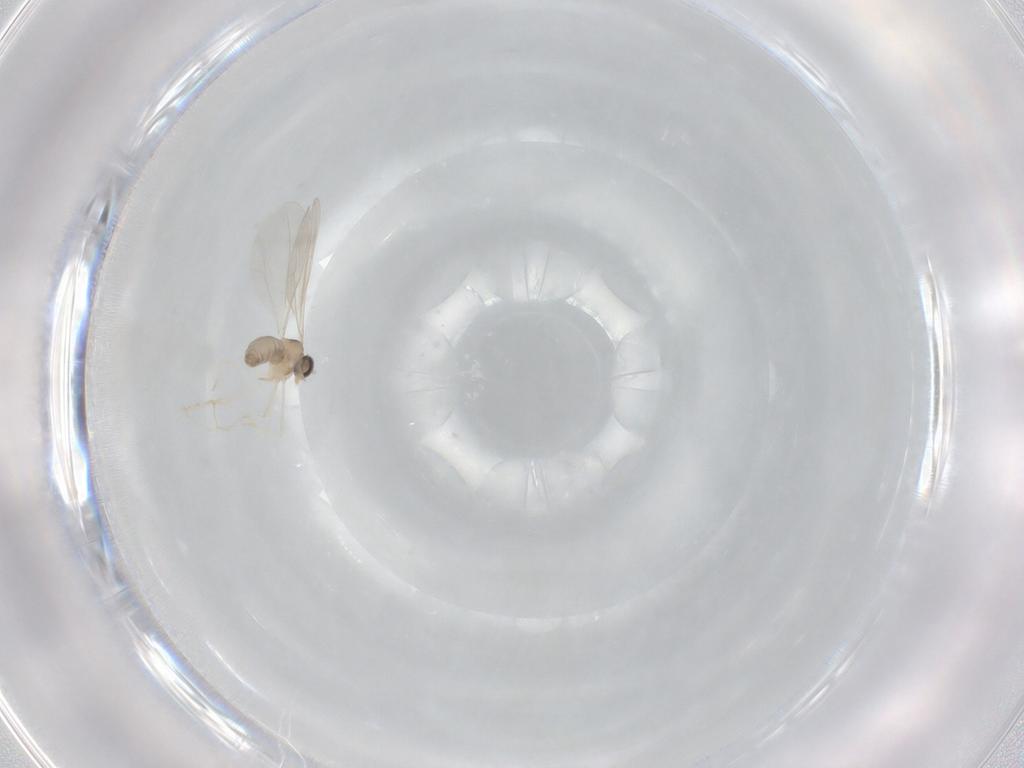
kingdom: Animalia
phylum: Arthropoda
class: Insecta
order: Diptera
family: Cecidomyiidae
